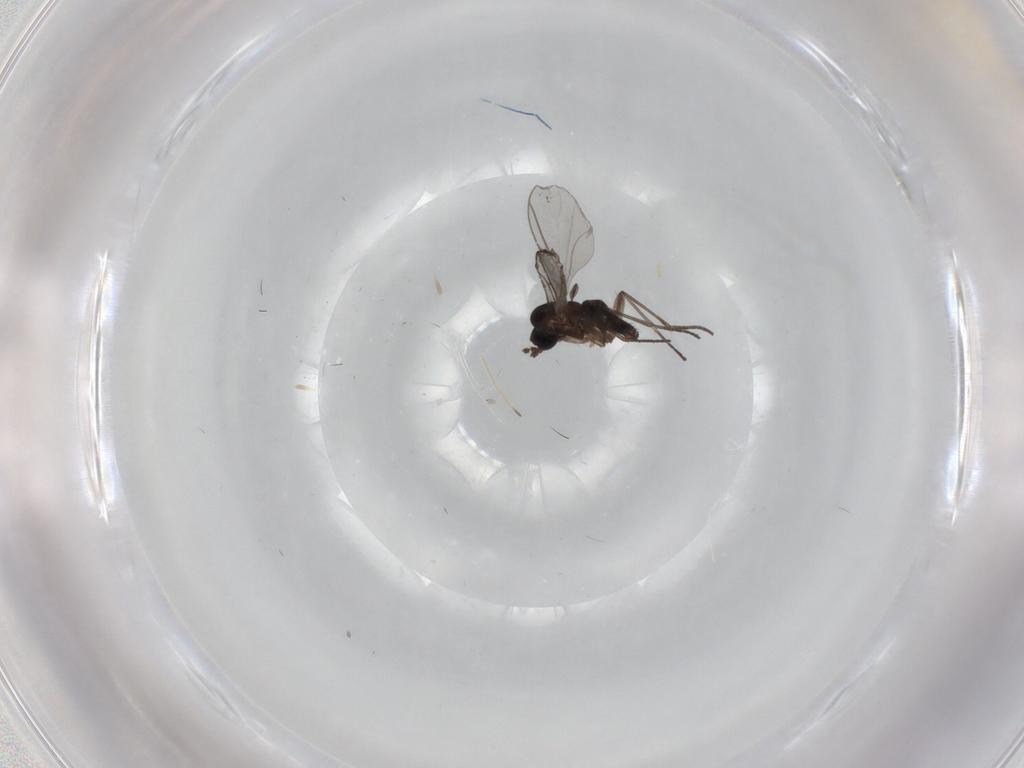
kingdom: Animalia
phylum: Arthropoda
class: Insecta
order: Diptera
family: Limoniidae
